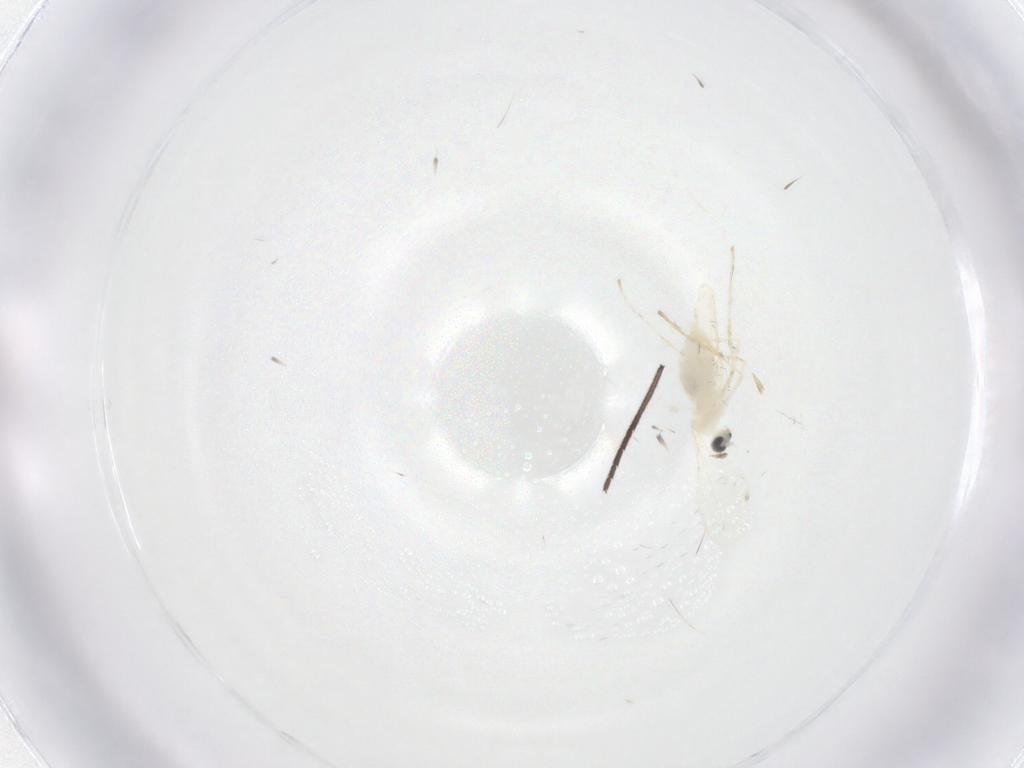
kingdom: Animalia
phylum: Arthropoda
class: Insecta
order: Diptera
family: Cecidomyiidae
